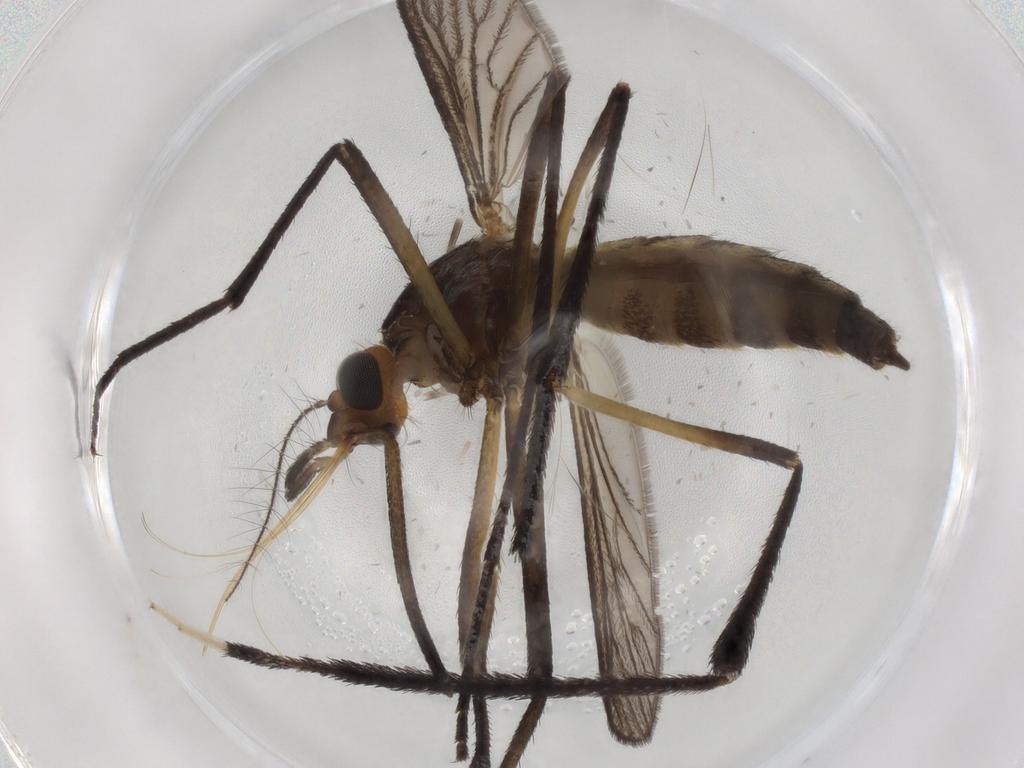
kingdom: Animalia
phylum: Arthropoda
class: Insecta
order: Diptera
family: Cecidomyiidae
